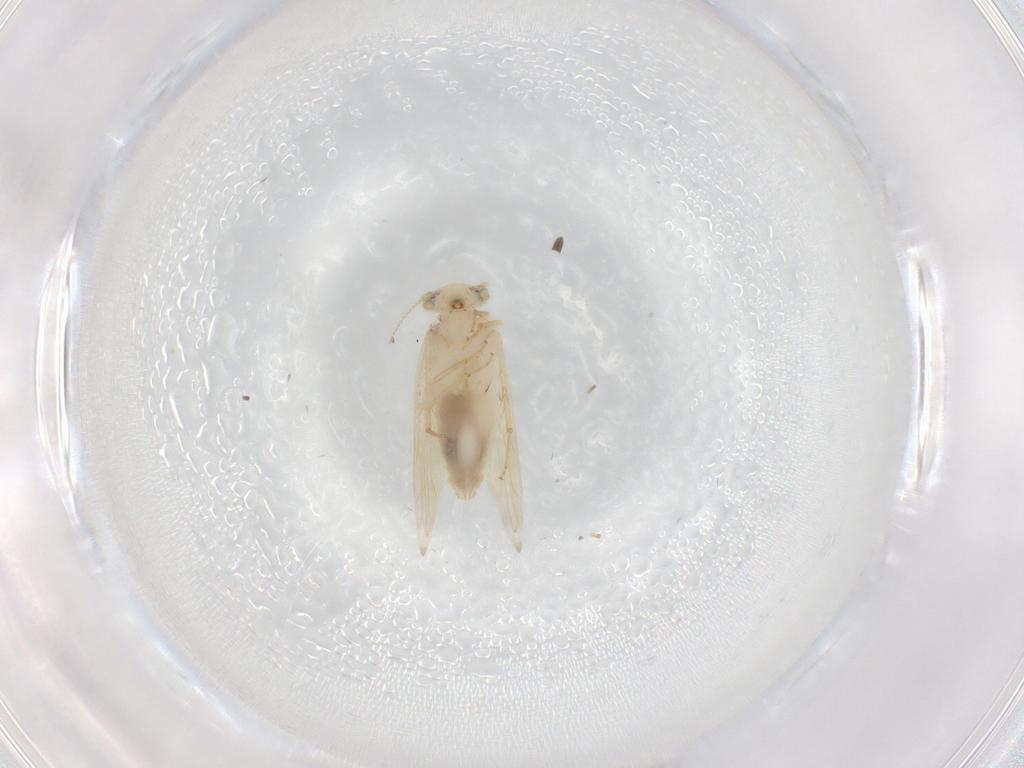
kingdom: Animalia
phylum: Arthropoda
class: Insecta
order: Psocodea
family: Lepidopsocidae
